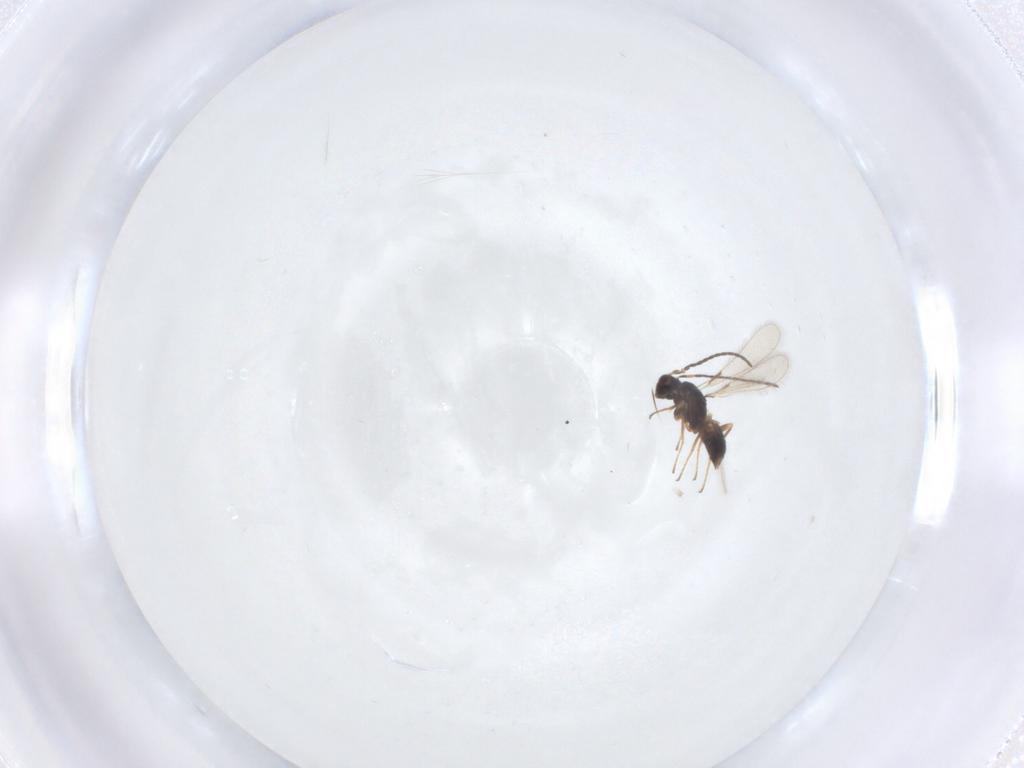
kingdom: Animalia
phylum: Arthropoda
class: Insecta
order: Hymenoptera
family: Mymaridae
